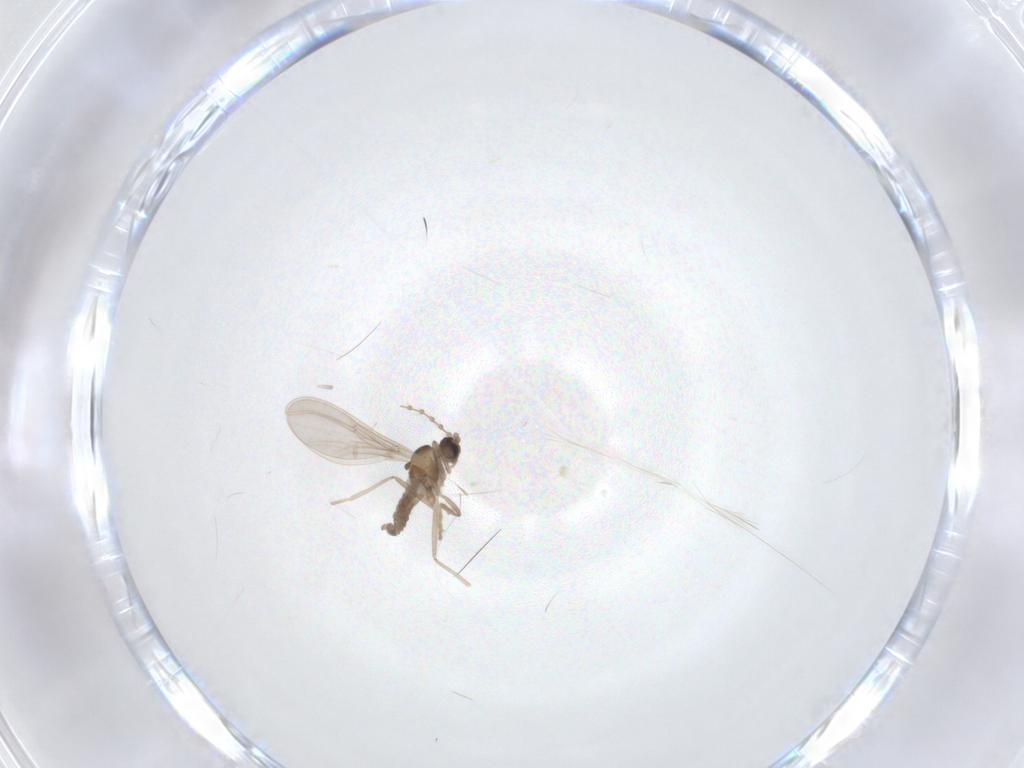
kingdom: Animalia
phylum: Arthropoda
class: Insecta
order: Diptera
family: Cecidomyiidae
